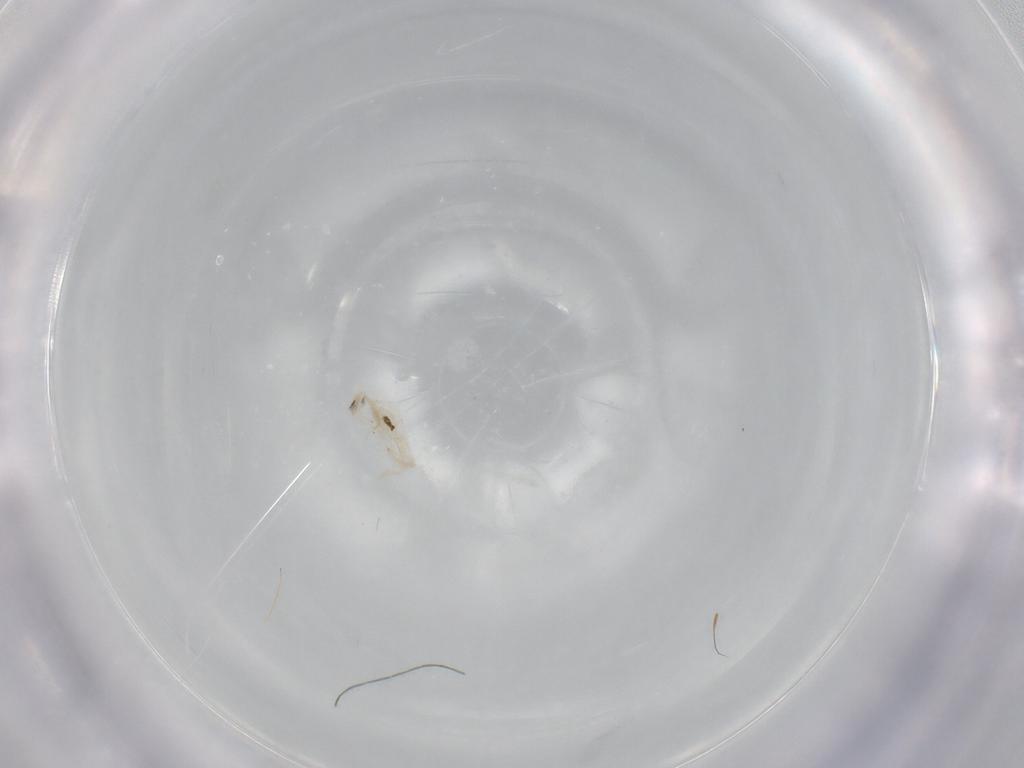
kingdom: Animalia
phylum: Arthropoda
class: Collembola
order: Entomobryomorpha
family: Entomobryidae
